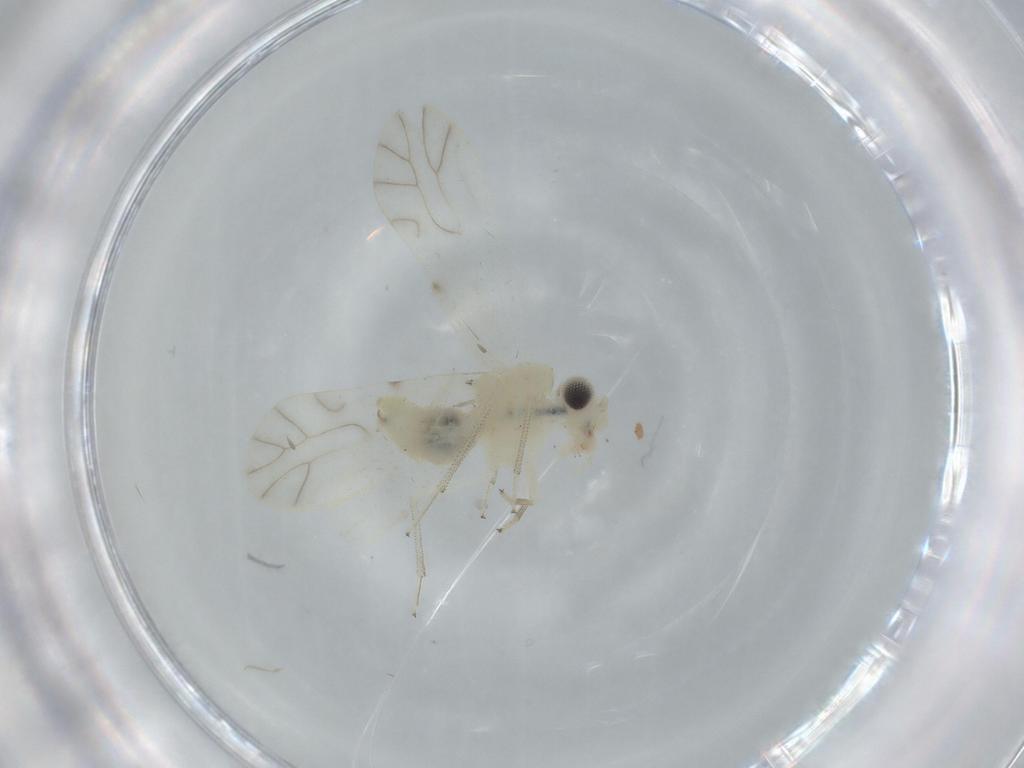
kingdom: Animalia
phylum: Arthropoda
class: Insecta
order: Psocodea
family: Caeciliusidae
